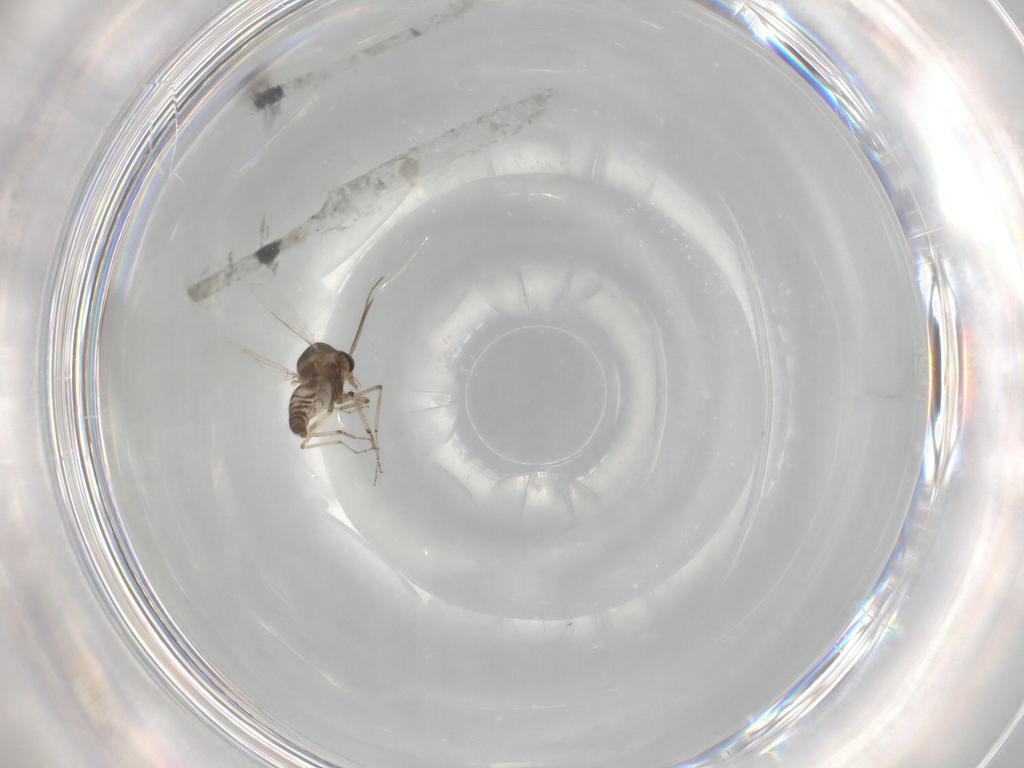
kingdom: Animalia
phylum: Arthropoda
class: Insecta
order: Diptera
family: Ceratopogonidae
